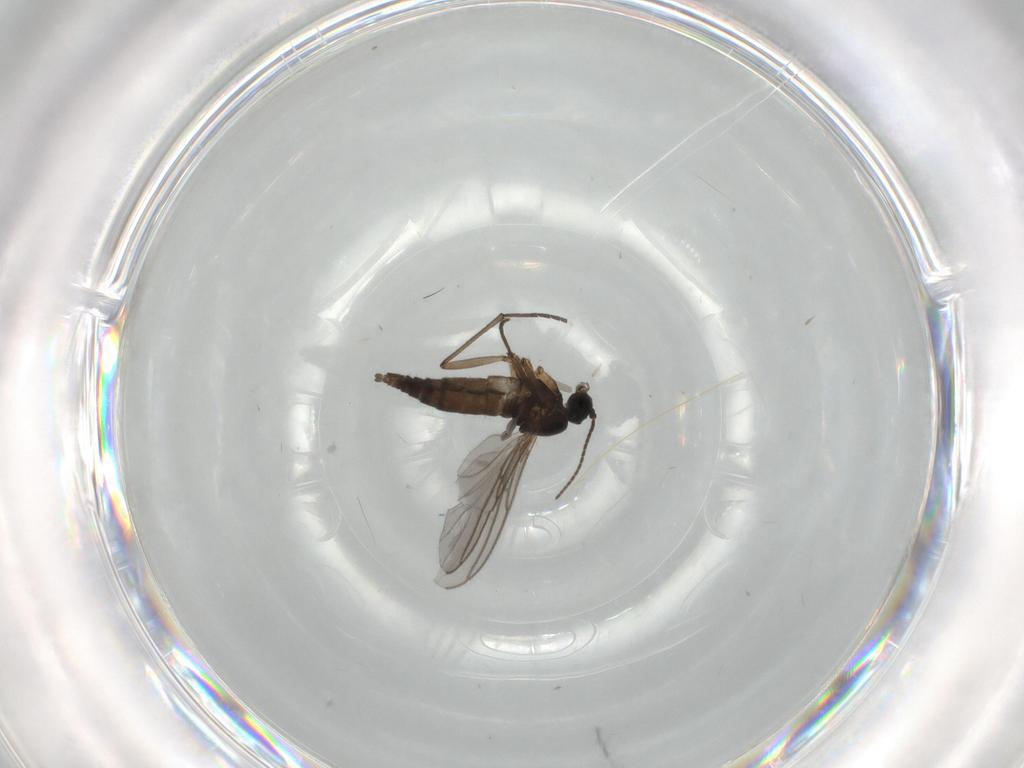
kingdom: Animalia
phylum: Arthropoda
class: Insecta
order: Diptera
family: Sciaridae
